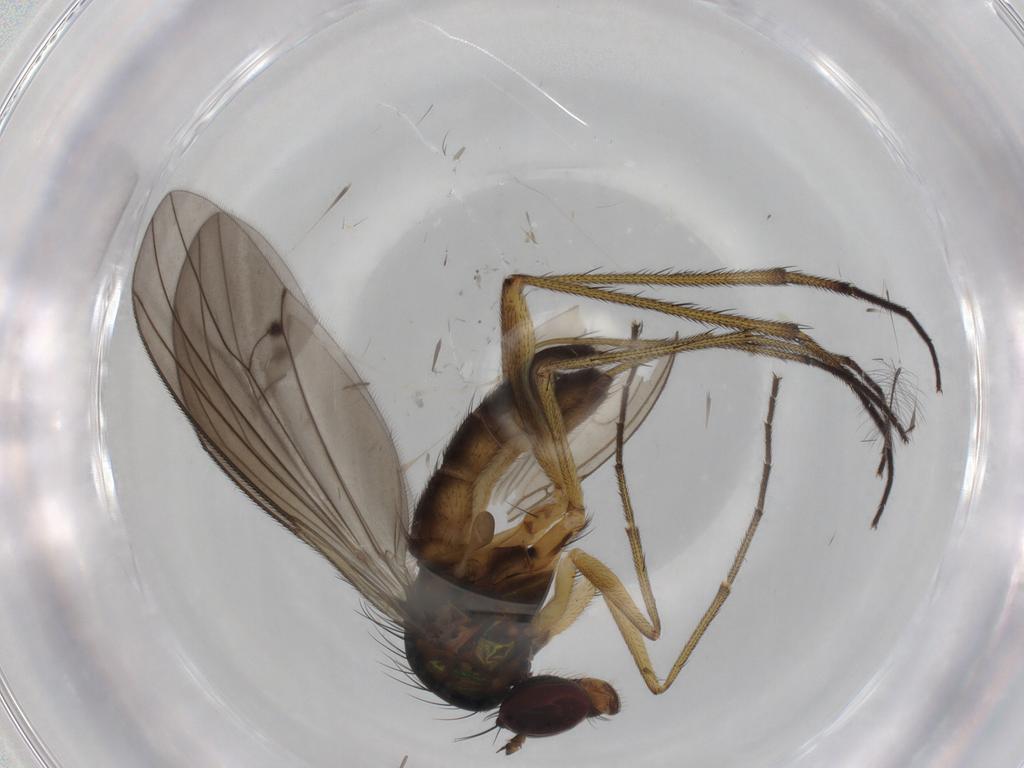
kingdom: Animalia
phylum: Arthropoda
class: Insecta
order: Diptera
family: Dolichopodidae
